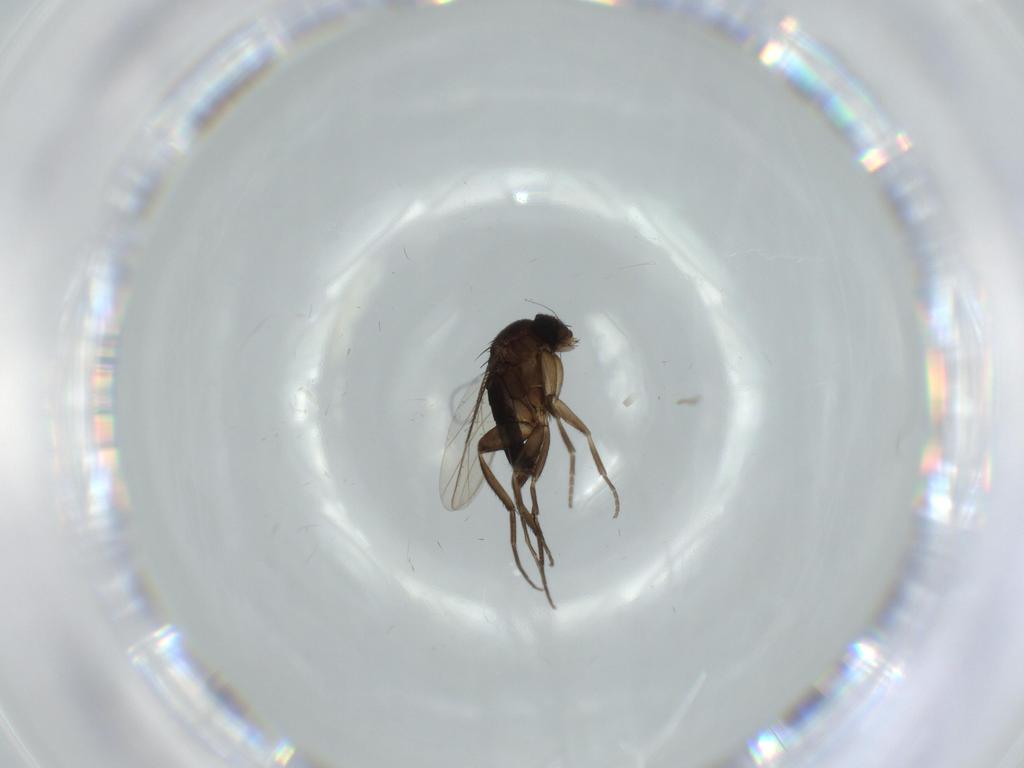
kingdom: Animalia
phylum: Arthropoda
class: Insecta
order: Diptera
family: Phoridae
